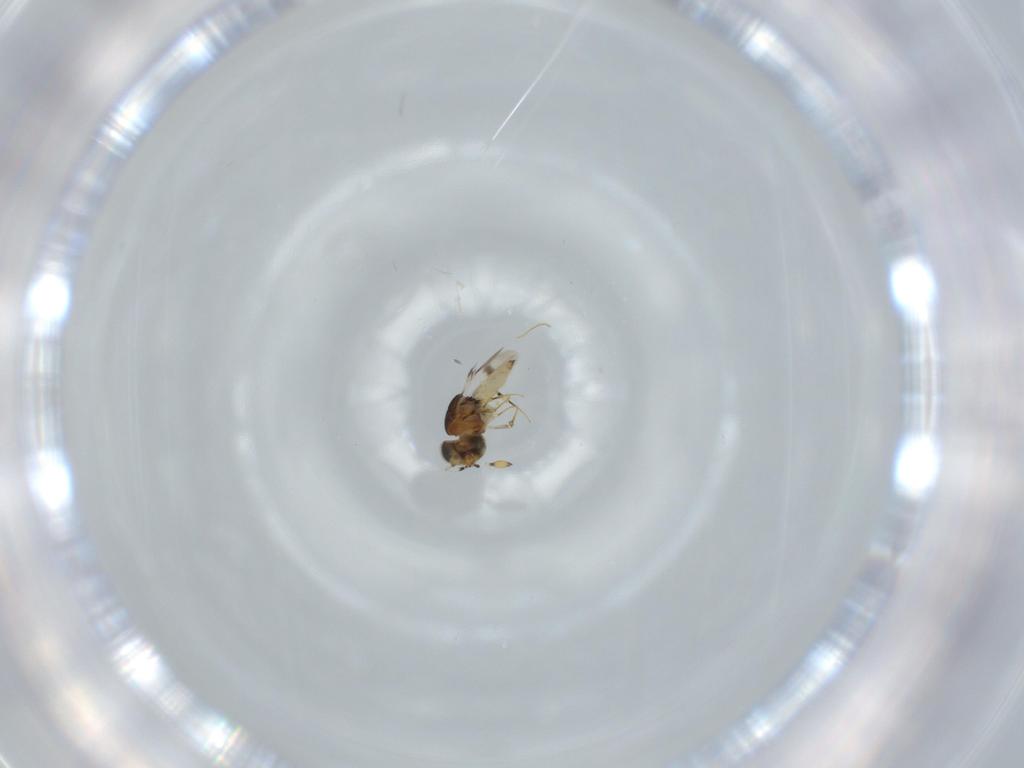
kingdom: Animalia
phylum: Arthropoda
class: Insecta
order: Hymenoptera
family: Scelionidae
